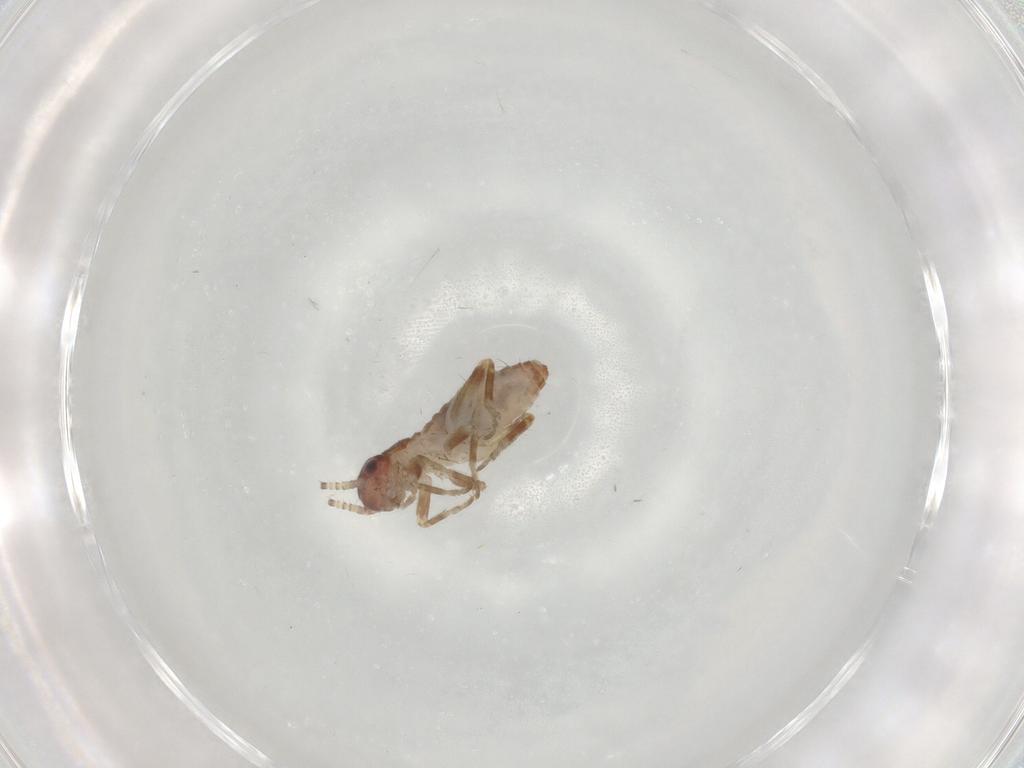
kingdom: Animalia
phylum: Arthropoda
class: Insecta
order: Orthoptera
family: Mogoplistidae
